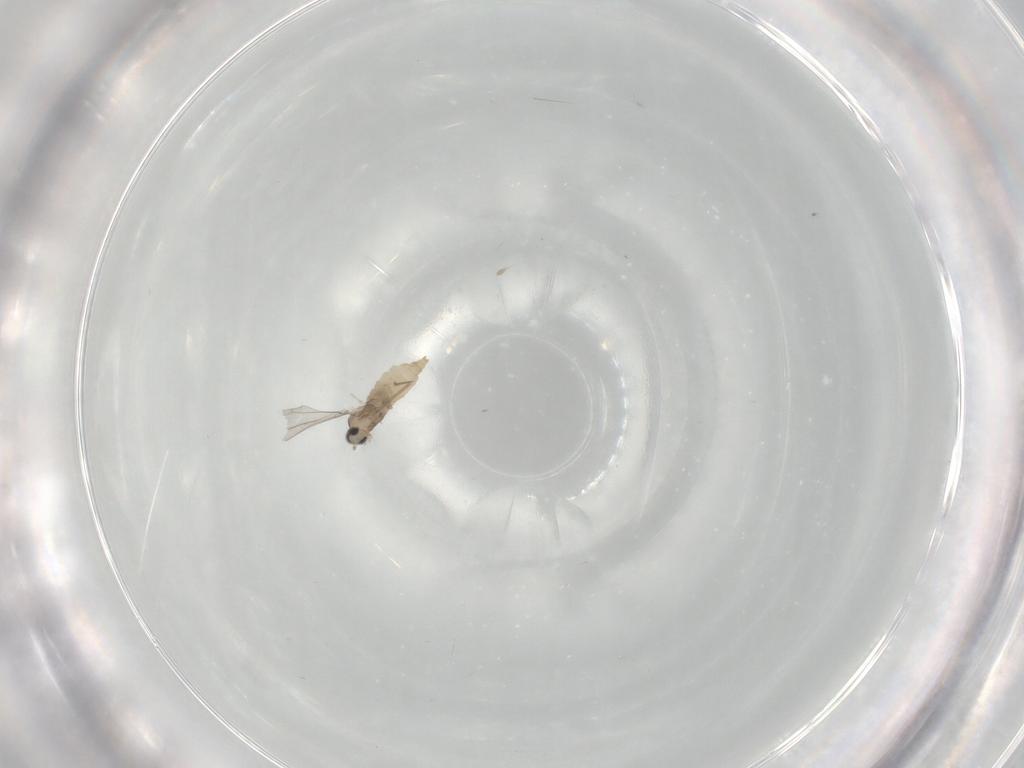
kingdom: Animalia
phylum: Arthropoda
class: Insecta
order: Diptera
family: Cecidomyiidae
